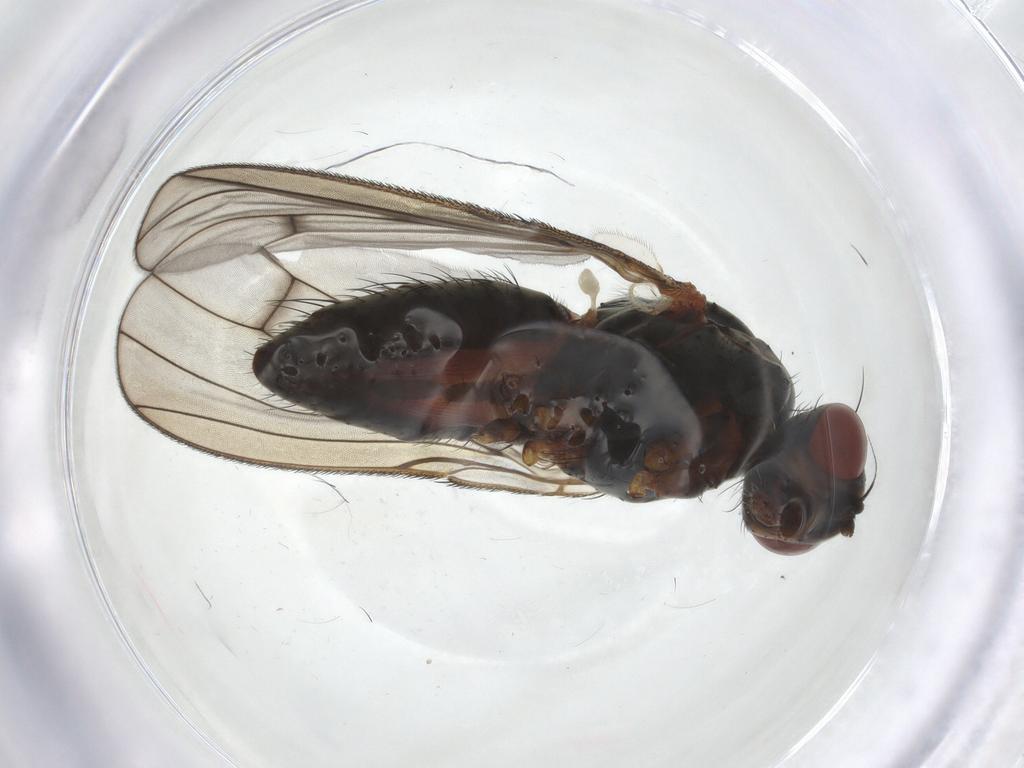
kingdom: Animalia
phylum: Arthropoda
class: Insecta
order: Diptera
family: Anthomyiidae
